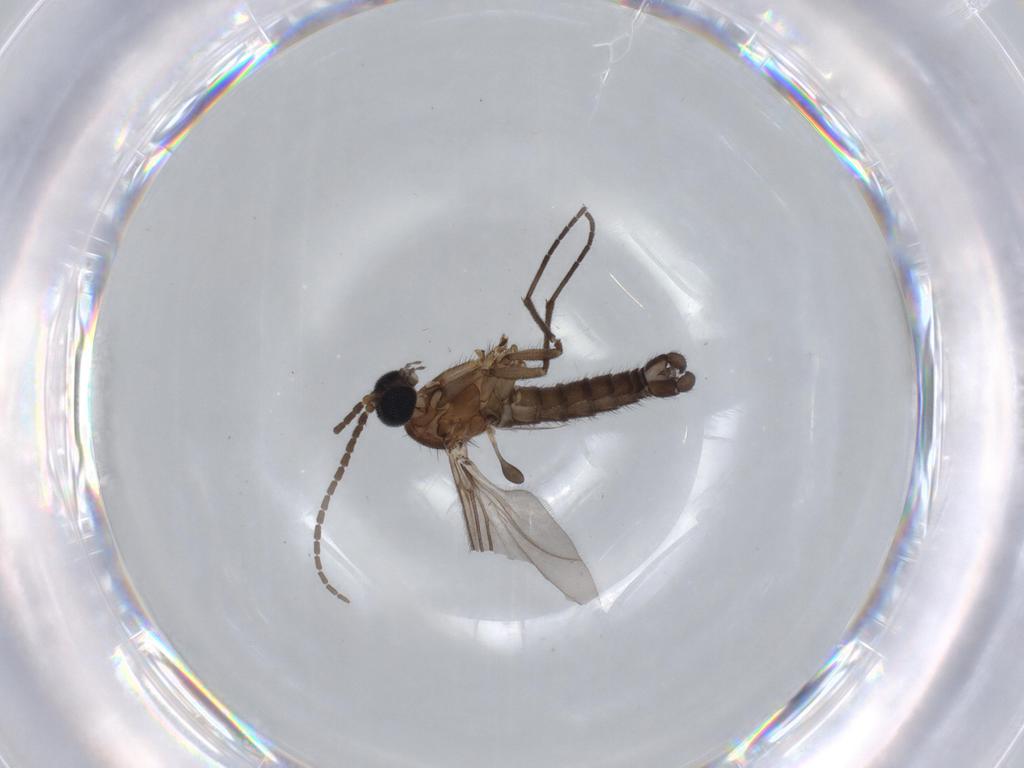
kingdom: Animalia
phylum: Arthropoda
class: Insecta
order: Diptera
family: Sciaridae
